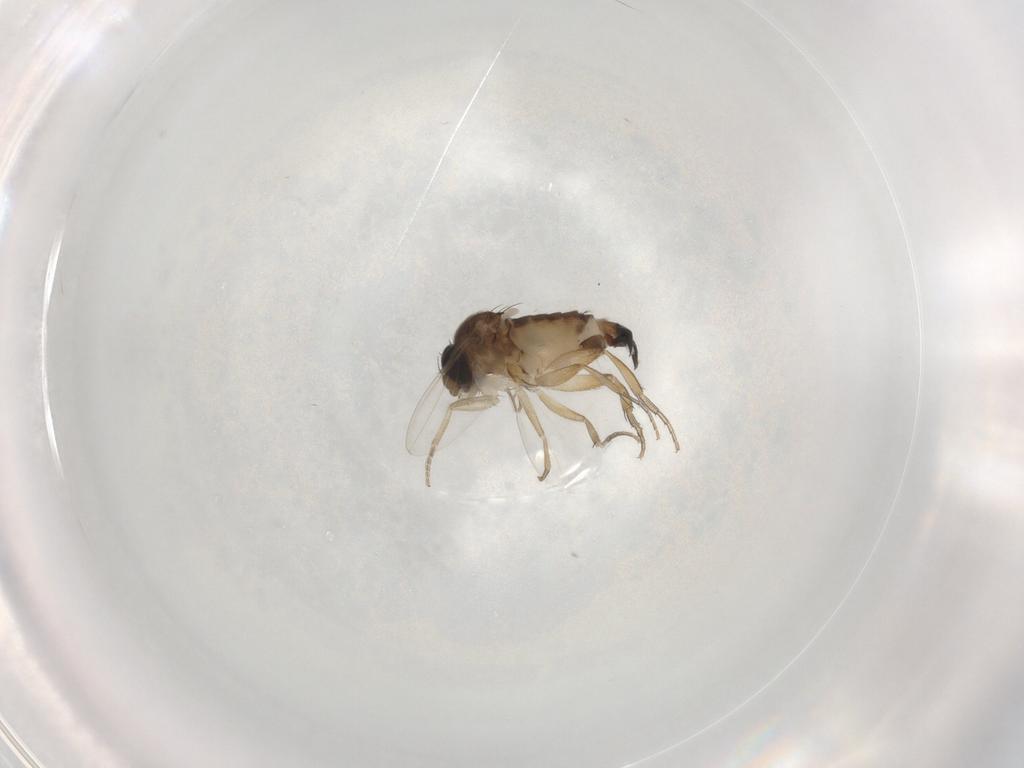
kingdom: Animalia
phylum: Arthropoda
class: Insecta
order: Diptera
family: Phoridae
